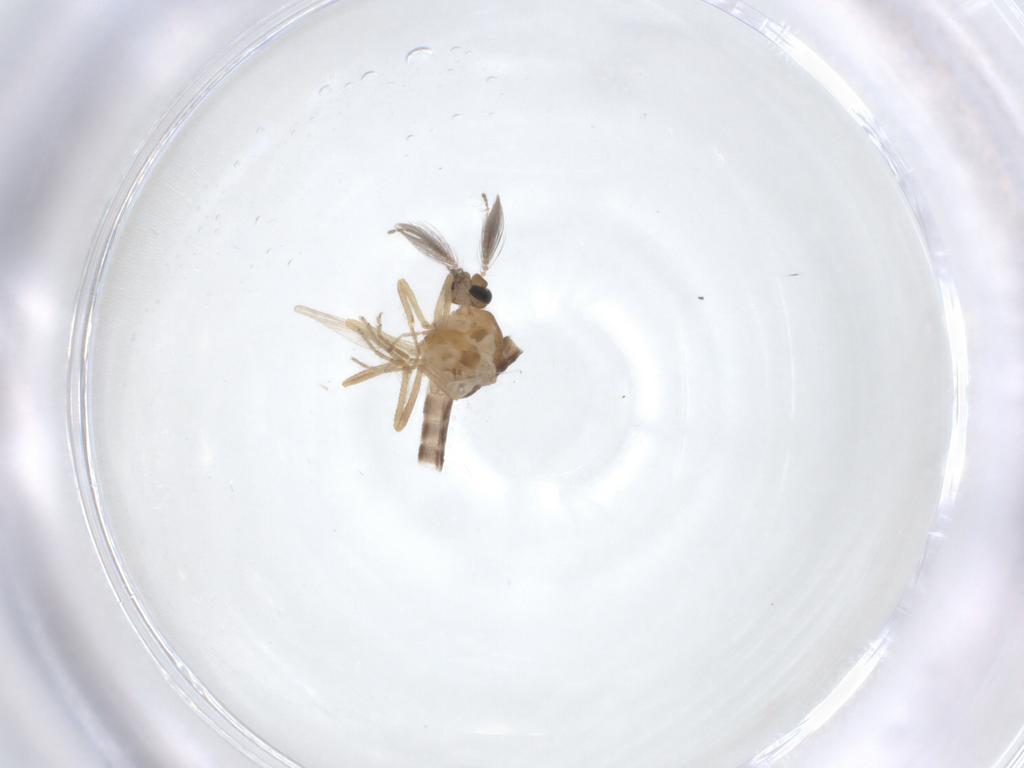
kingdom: Animalia
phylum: Arthropoda
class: Insecta
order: Diptera
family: Ceratopogonidae
